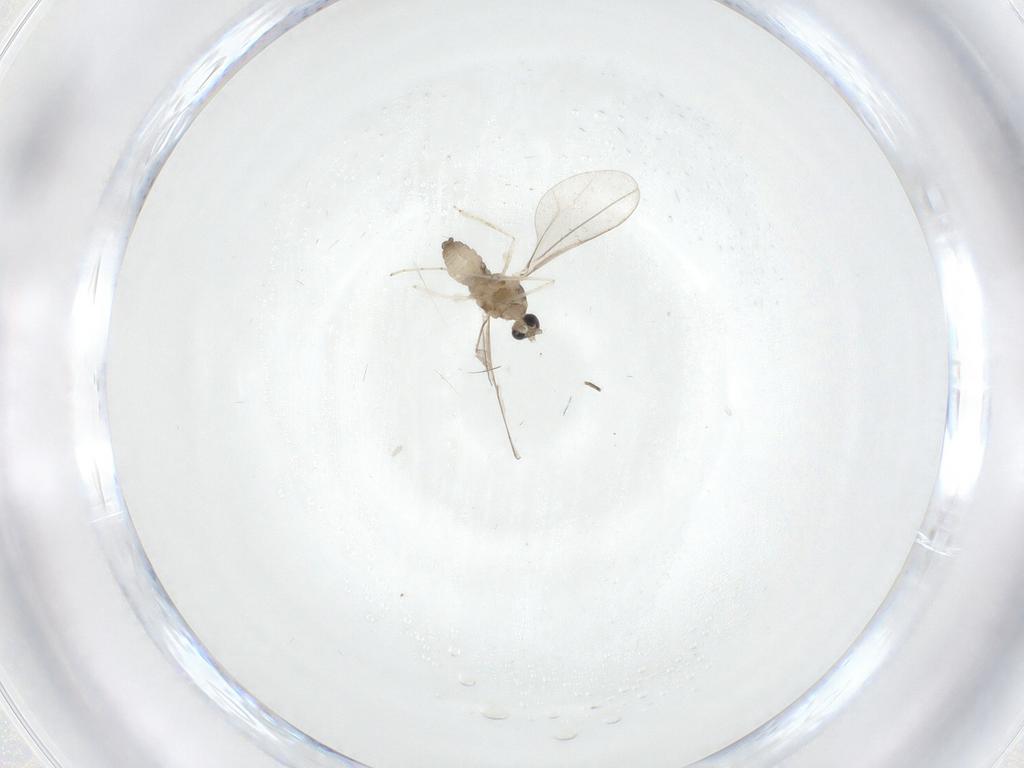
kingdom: Animalia
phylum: Arthropoda
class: Insecta
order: Diptera
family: Cecidomyiidae
